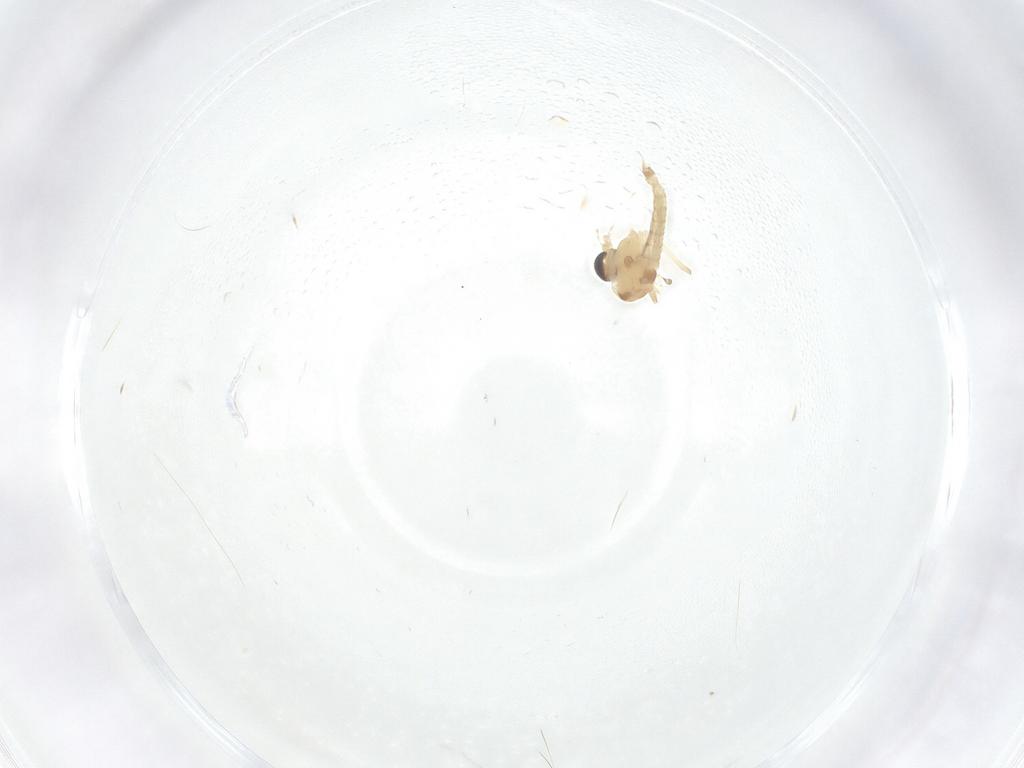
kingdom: Animalia
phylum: Arthropoda
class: Insecta
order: Diptera
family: Chironomidae
